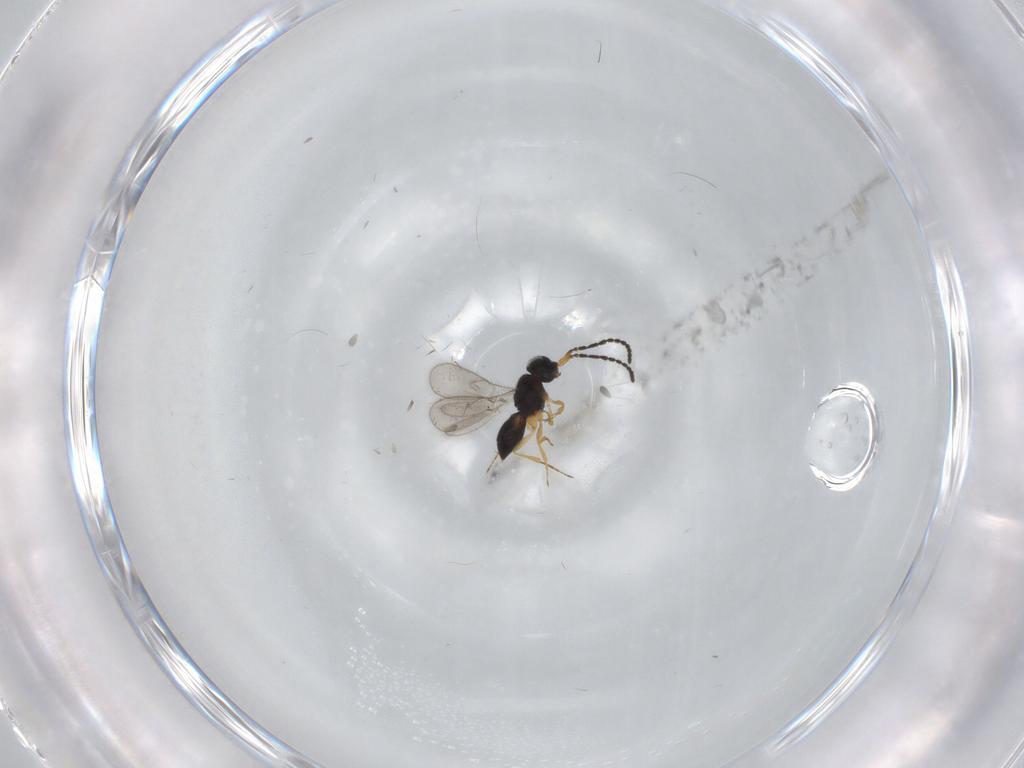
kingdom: Animalia
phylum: Arthropoda
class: Insecta
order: Hymenoptera
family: Scelionidae
